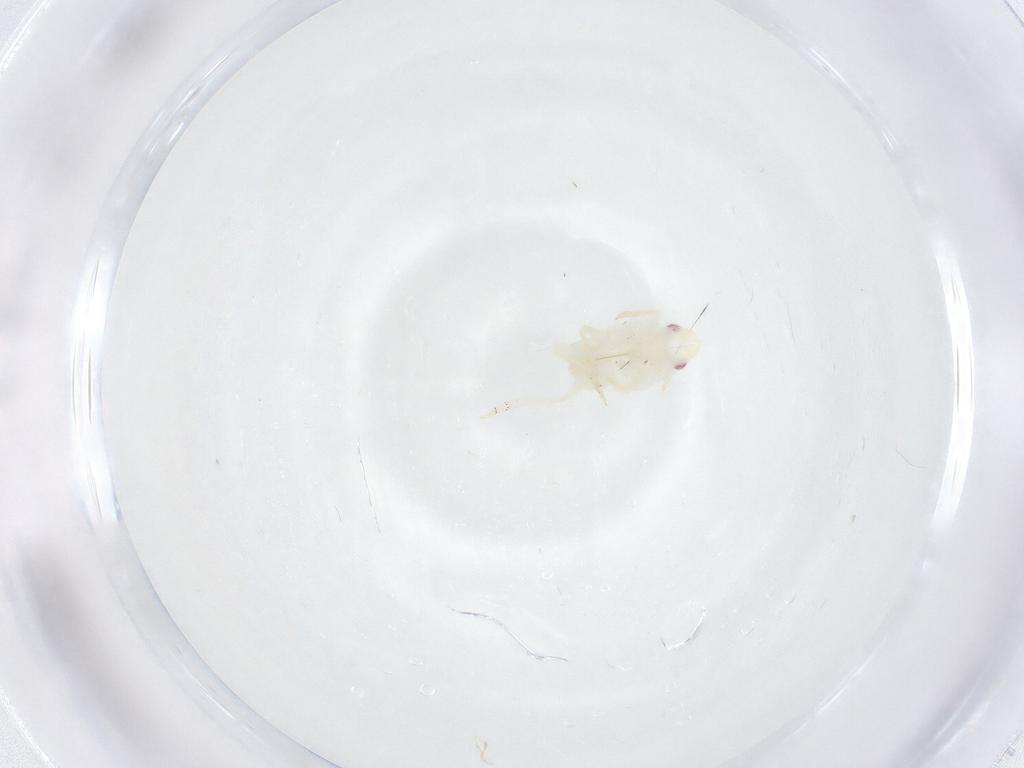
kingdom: Animalia
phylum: Arthropoda
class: Insecta
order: Hemiptera
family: Flatidae
